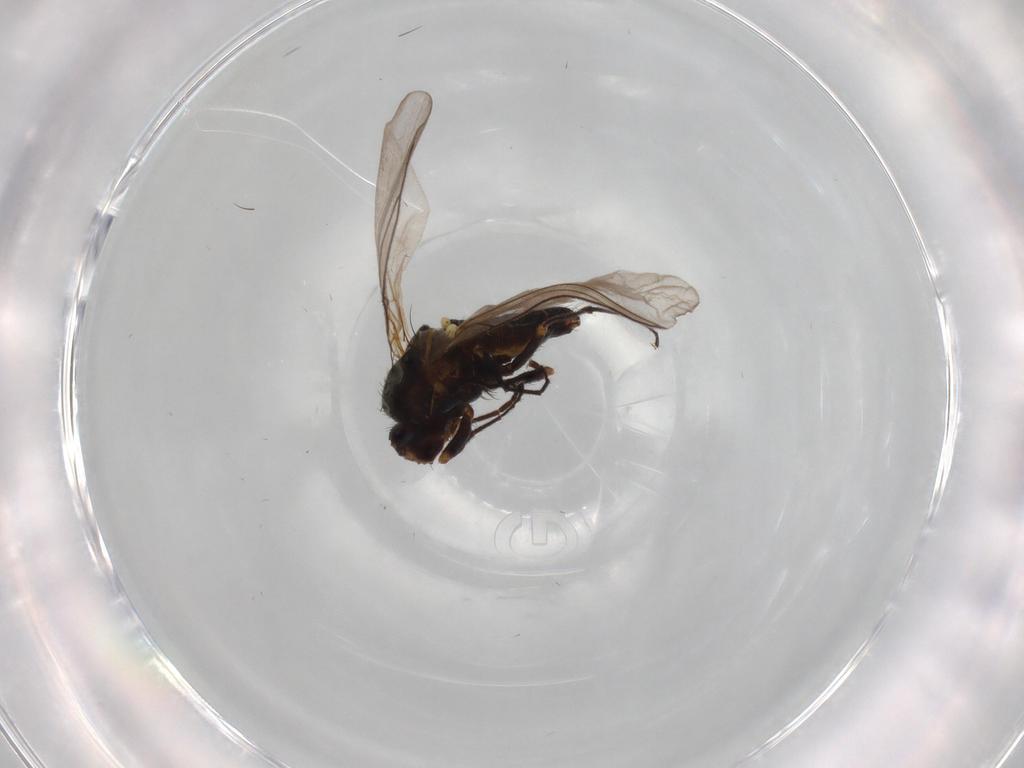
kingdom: Animalia
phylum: Arthropoda
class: Insecta
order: Diptera
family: Agromyzidae
